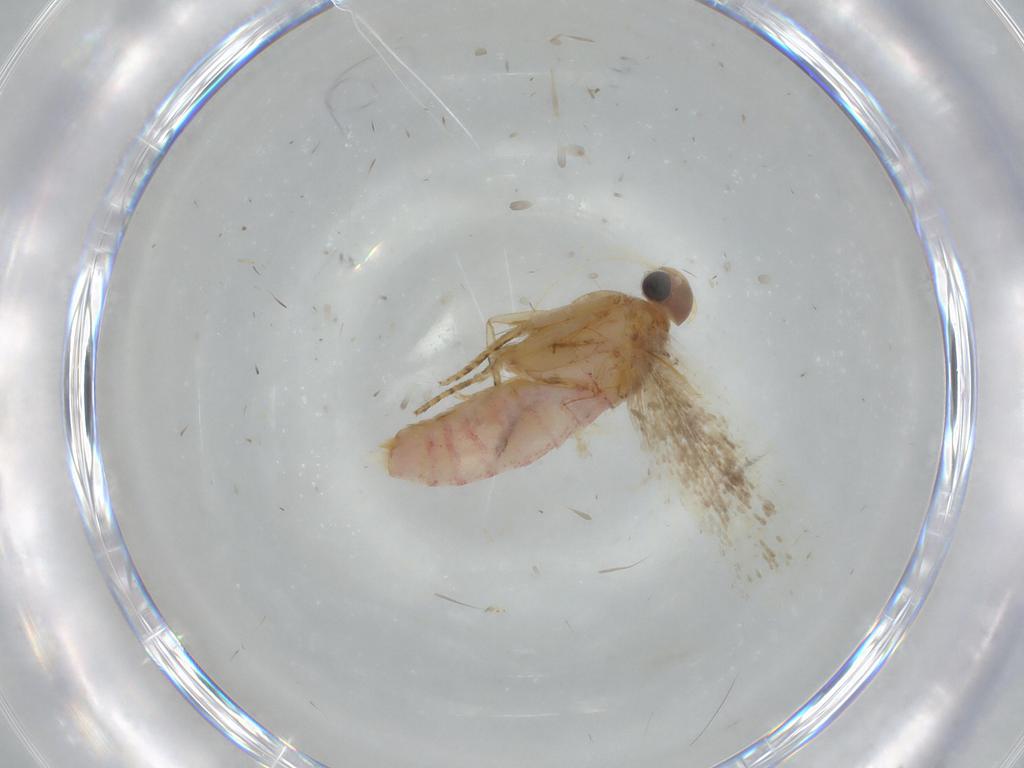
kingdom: Animalia
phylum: Arthropoda
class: Insecta
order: Lepidoptera
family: Gelechiidae
